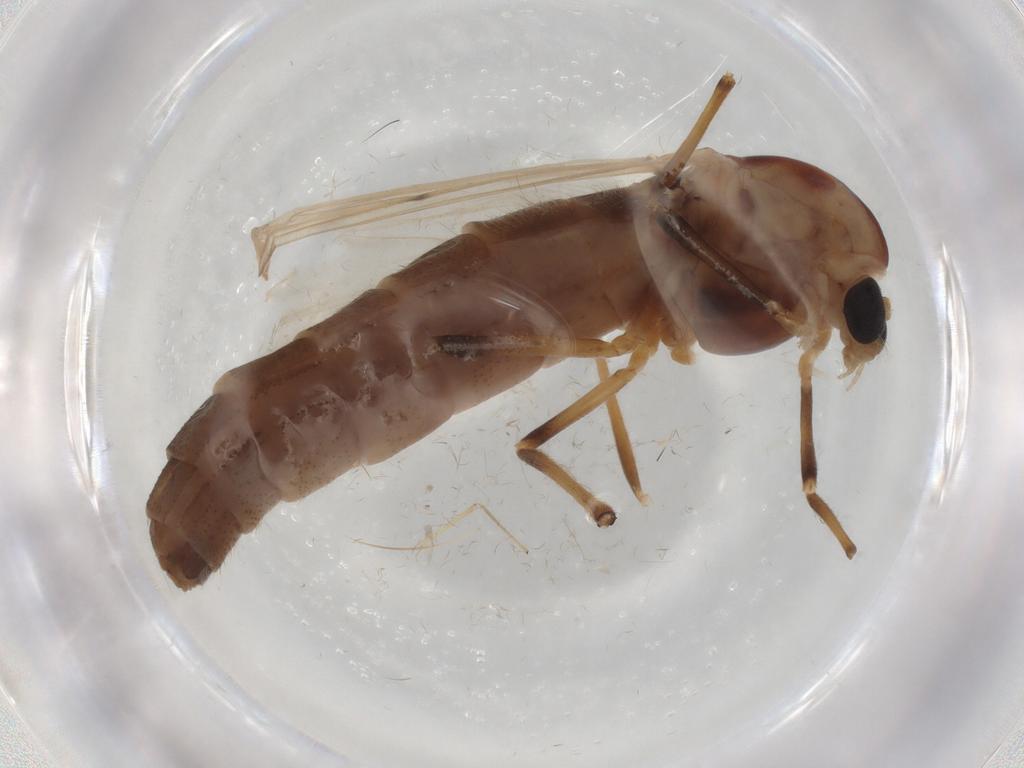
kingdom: Animalia
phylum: Arthropoda
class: Insecta
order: Diptera
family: Chironomidae
